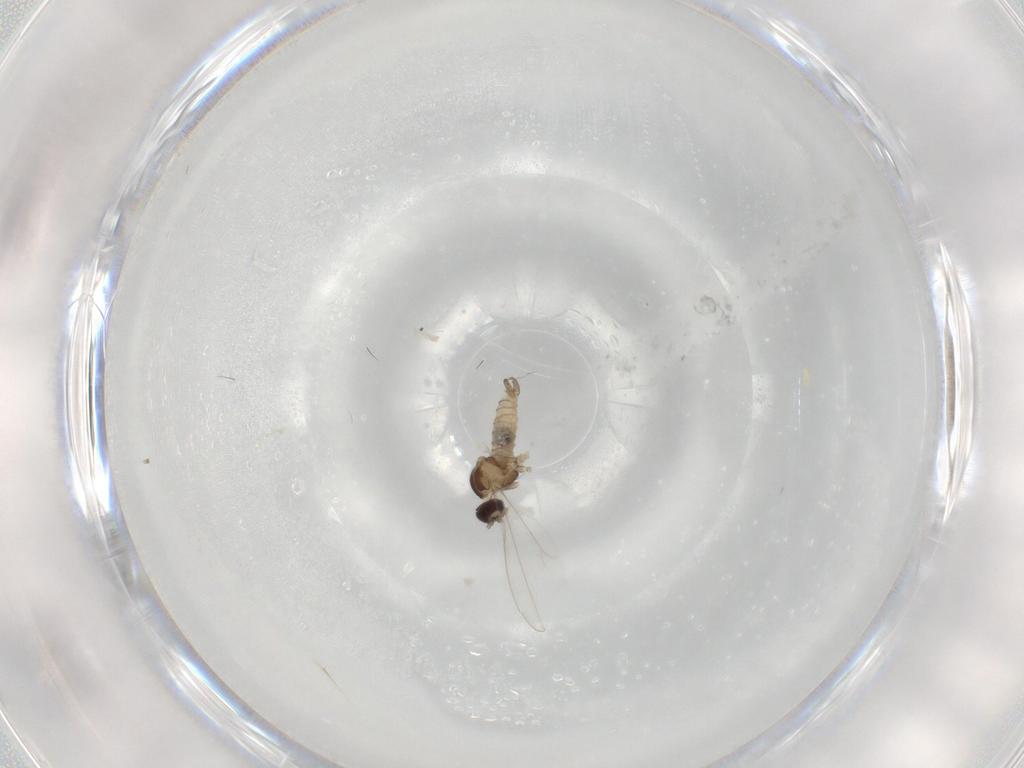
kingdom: Animalia
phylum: Arthropoda
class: Insecta
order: Diptera
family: Cecidomyiidae
